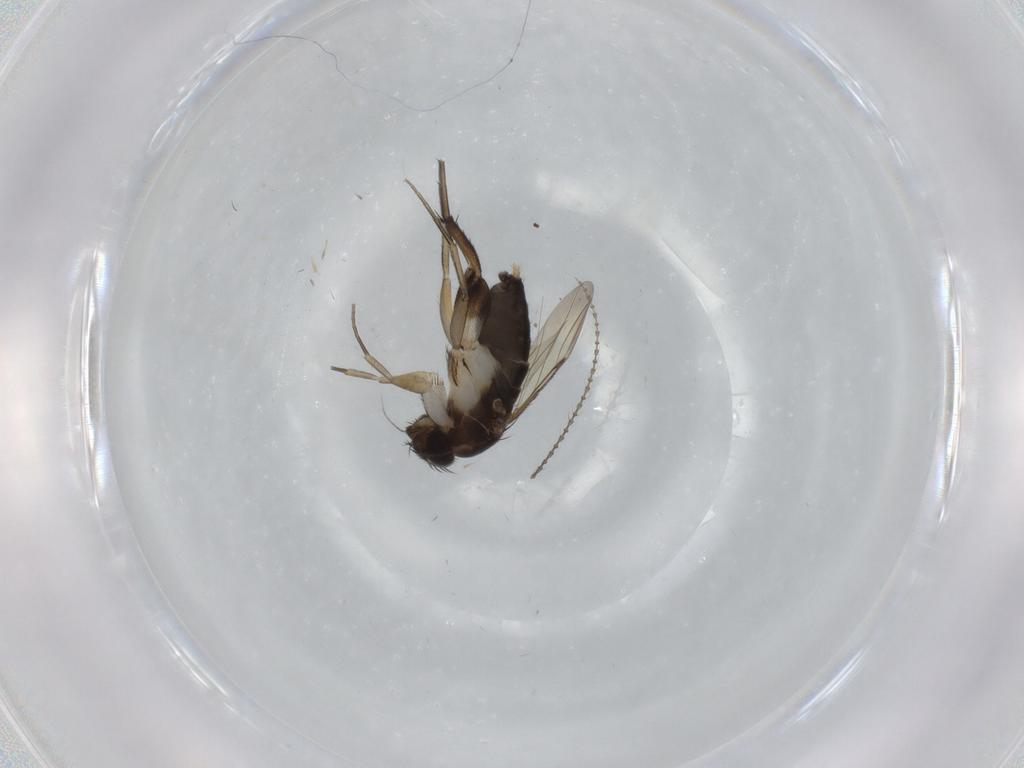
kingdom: Animalia
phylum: Arthropoda
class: Insecta
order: Diptera
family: Phoridae
